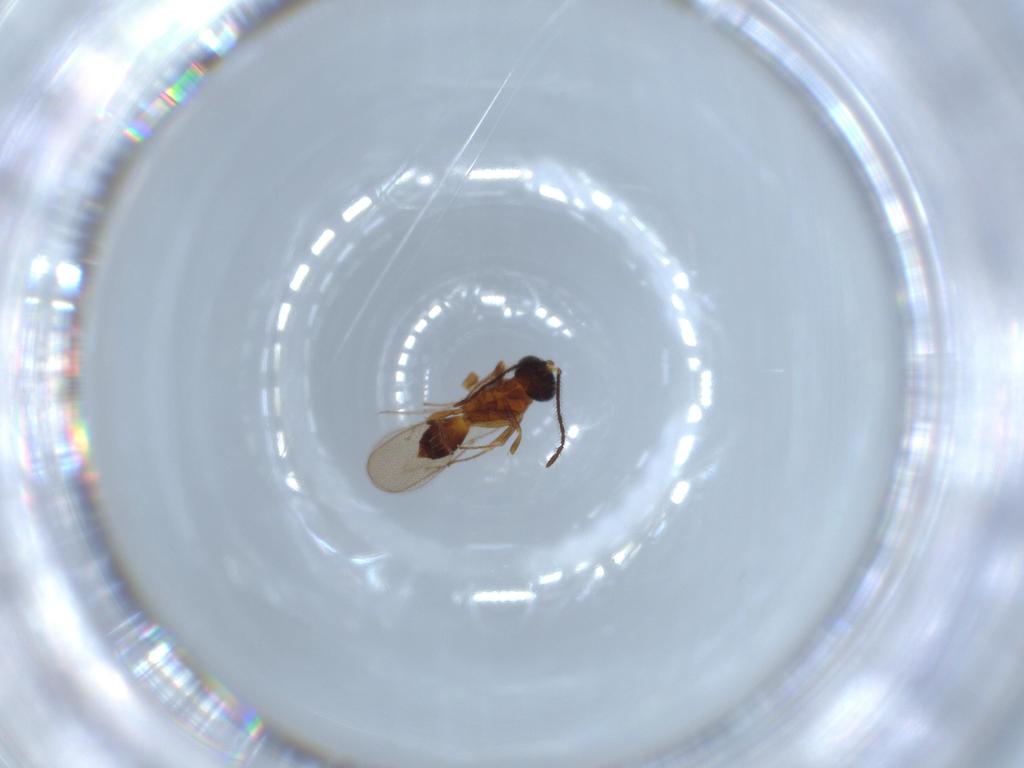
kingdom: Animalia
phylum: Arthropoda
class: Insecta
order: Hymenoptera
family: Trichogrammatidae
